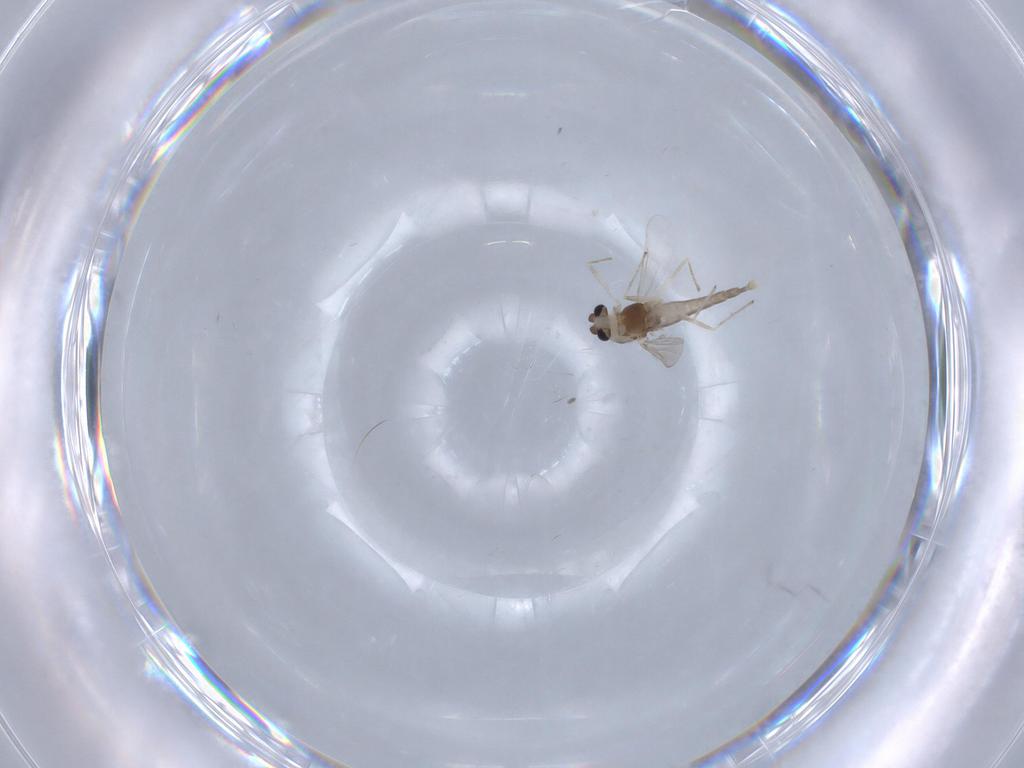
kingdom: Animalia
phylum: Arthropoda
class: Insecta
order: Diptera
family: Chironomidae
